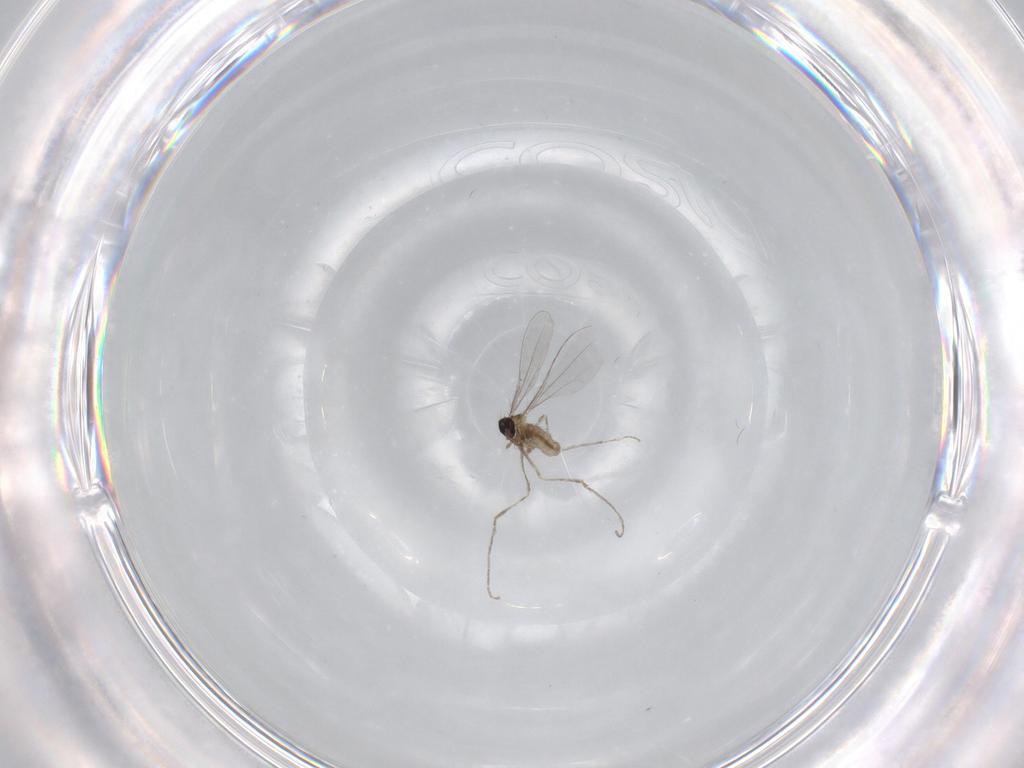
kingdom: Animalia
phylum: Arthropoda
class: Insecta
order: Diptera
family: Cecidomyiidae
